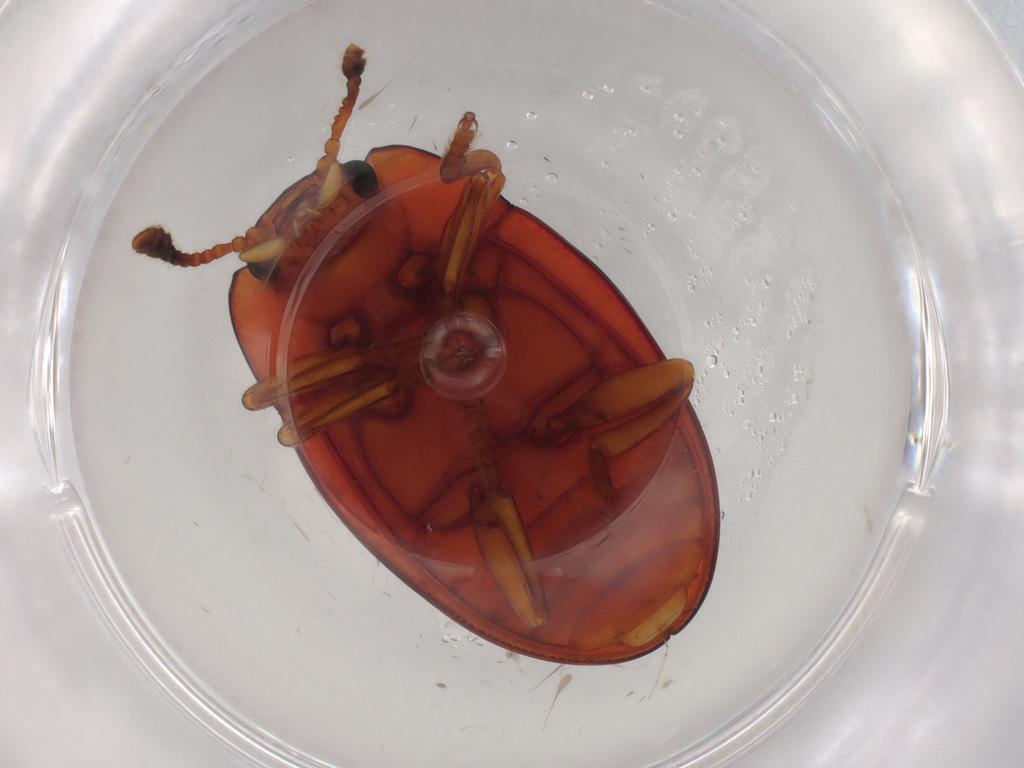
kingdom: Animalia
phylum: Arthropoda
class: Insecta
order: Coleoptera
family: Erotylidae
